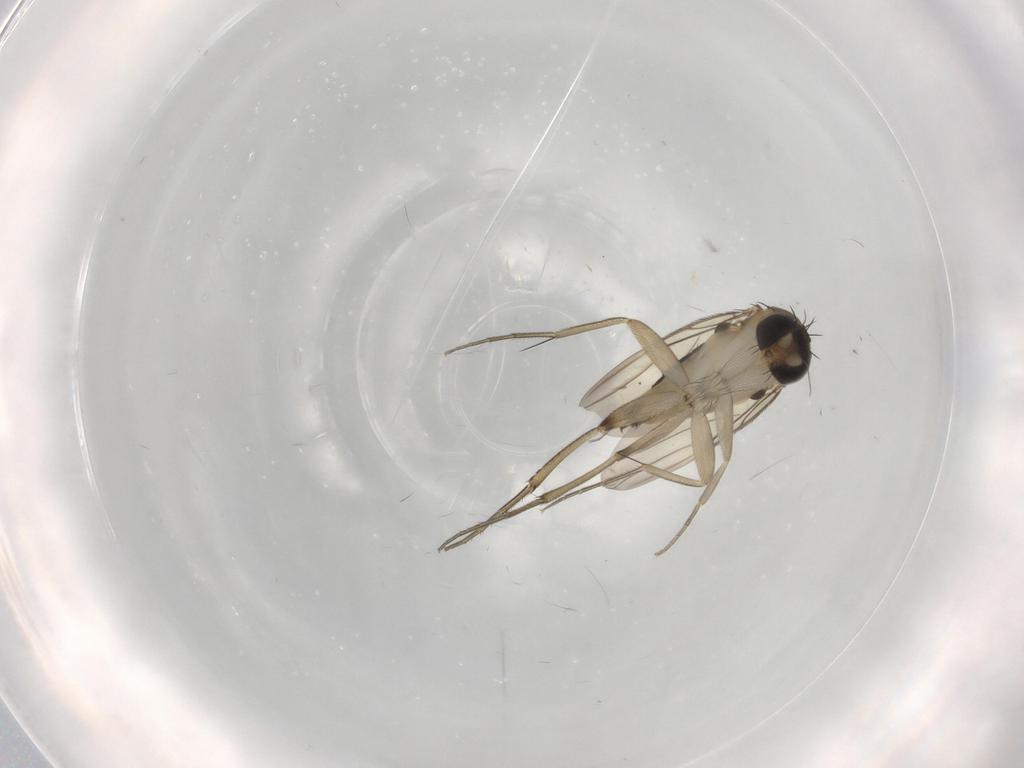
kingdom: Animalia
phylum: Arthropoda
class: Insecta
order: Diptera
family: Phoridae
